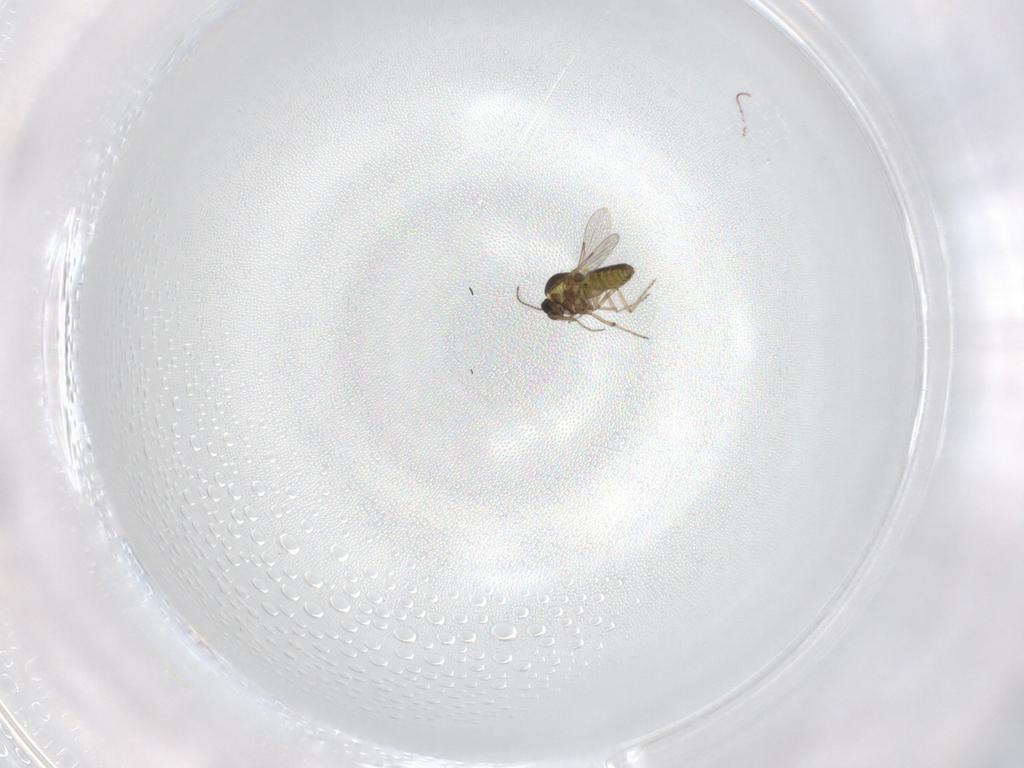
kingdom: Animalia
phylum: Arthropoda
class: Insecta
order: Diptera
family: Ceratopogonidae
